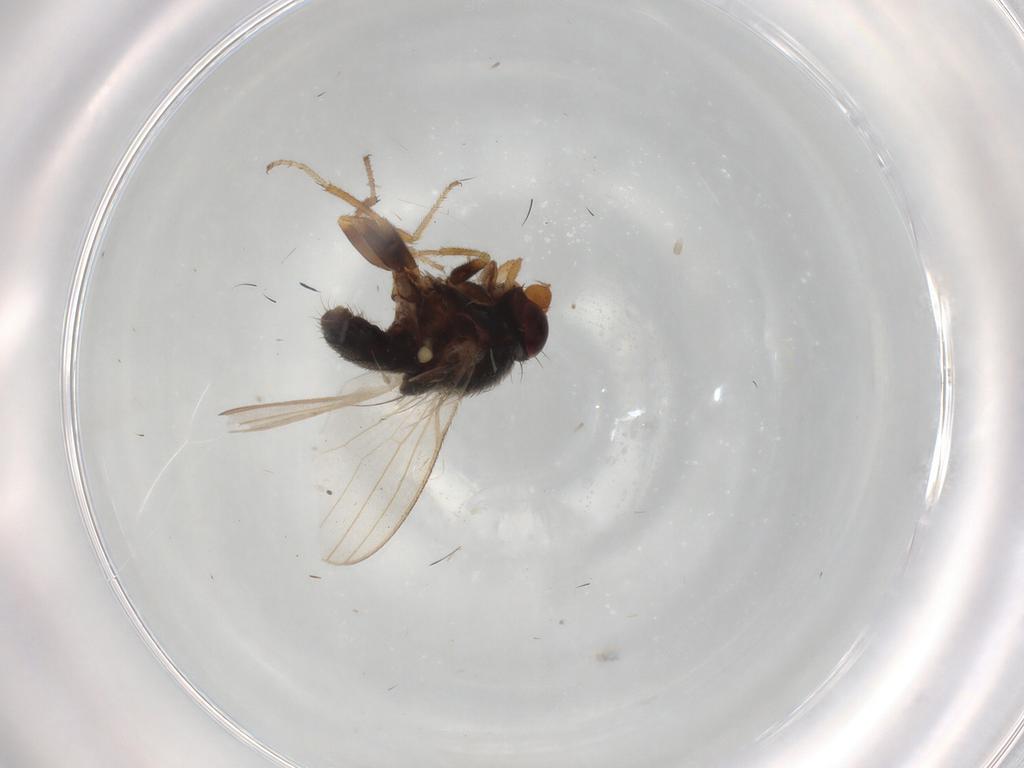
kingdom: Animalia
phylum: Arthropoda
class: Insecta
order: Diptera
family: Milichiidae
